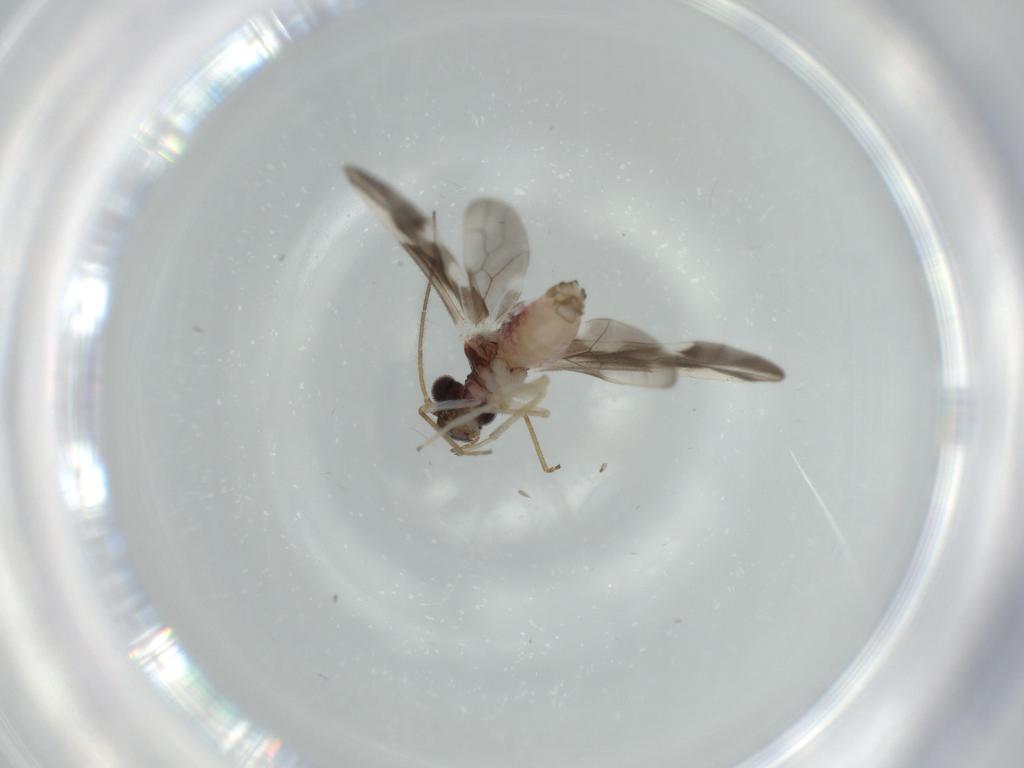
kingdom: Animalia
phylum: Arthropoda
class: Insecta
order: Psocodea
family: Caeciliusidae
